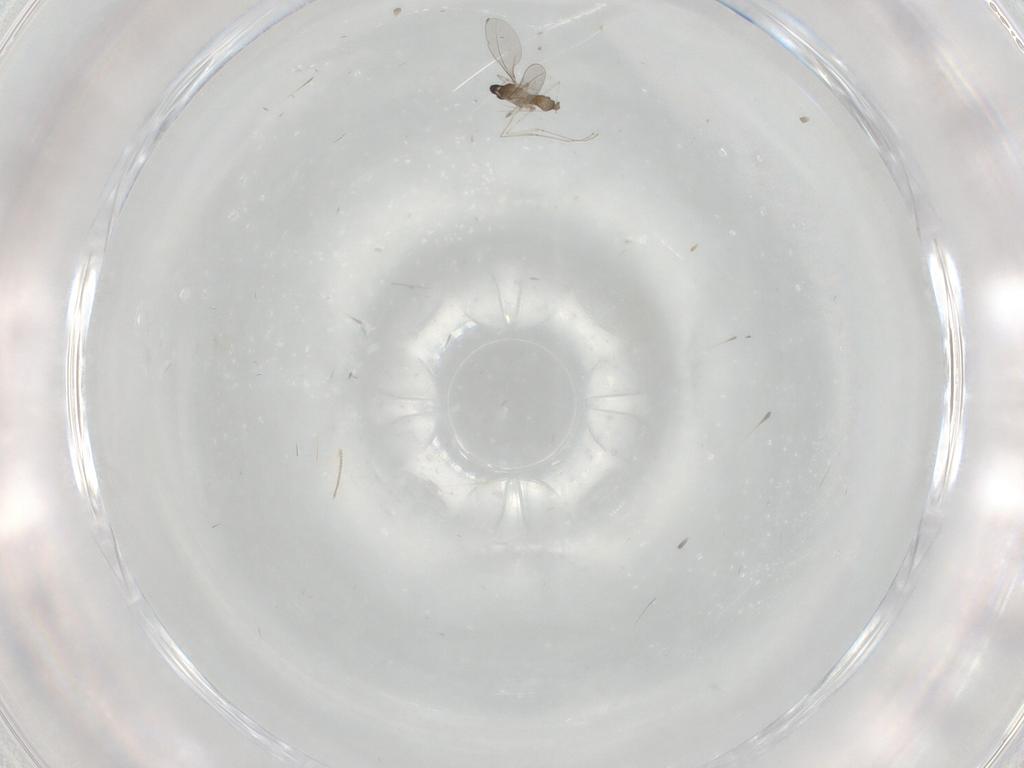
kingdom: Animalia
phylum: Arthropoda
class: Insecta
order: Diptera
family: Cecidomyiidae
